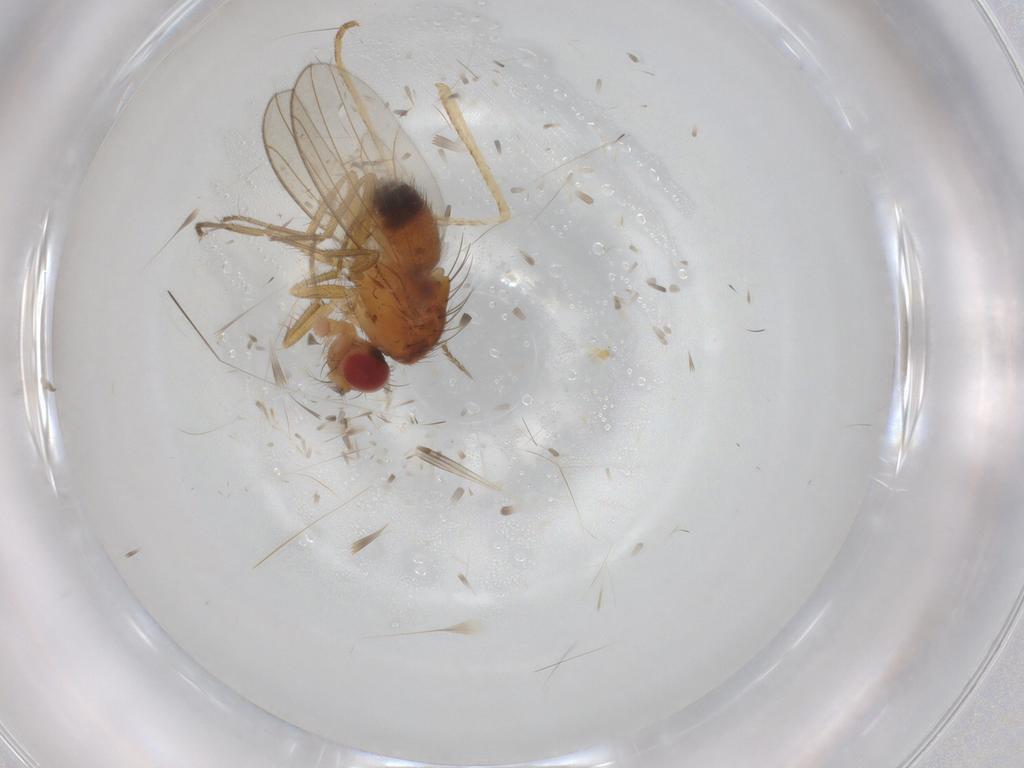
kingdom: Animalia
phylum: Arthropoda
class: Insecta
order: Diptera
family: Drosophilidae
